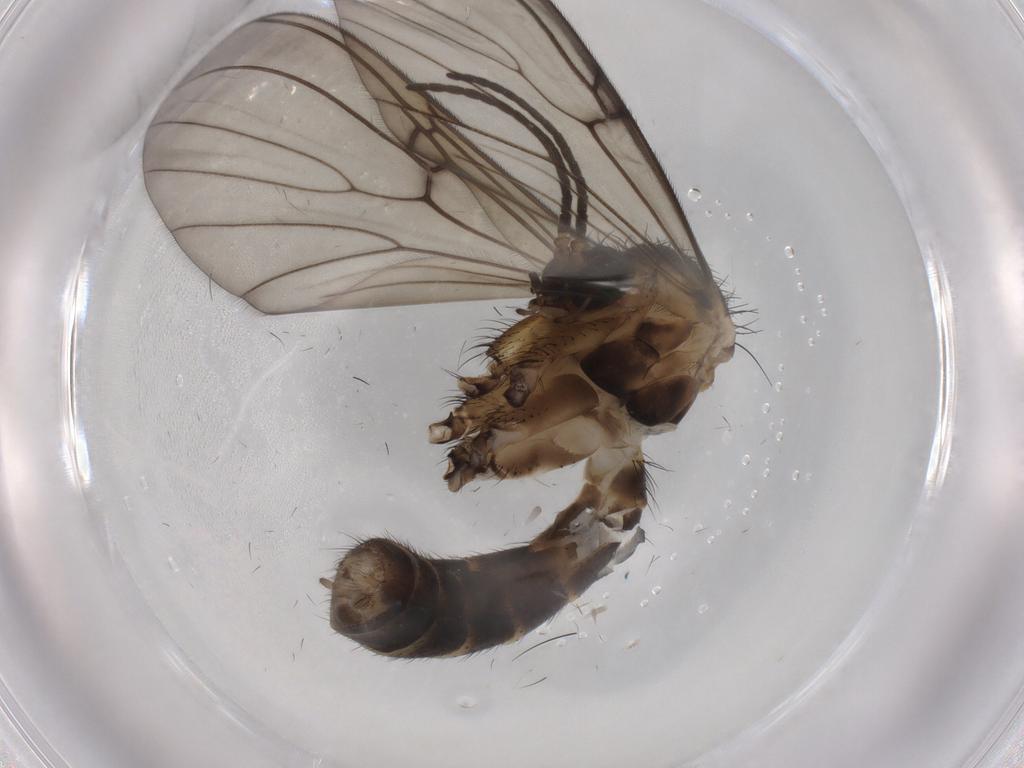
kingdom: Animalia
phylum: Arthropoda
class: Insecta
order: Diptera
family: Mycetophilidae
